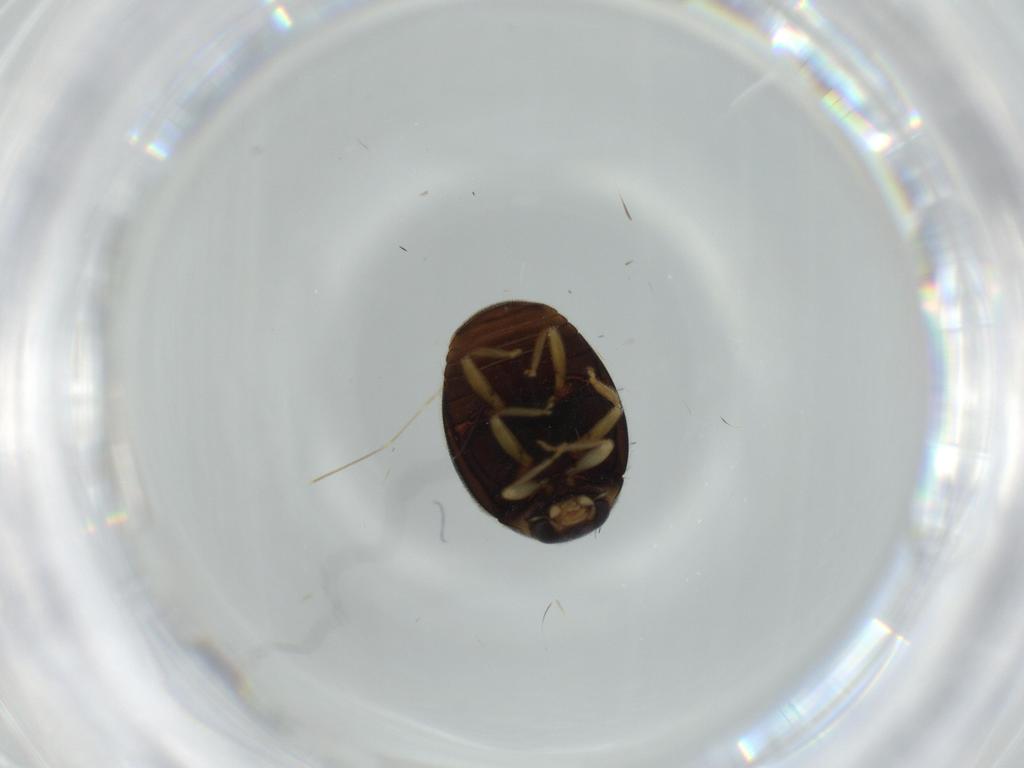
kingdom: Animalia
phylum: Arthropoda
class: Insecta
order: Coleoptera
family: Coccinellidae
